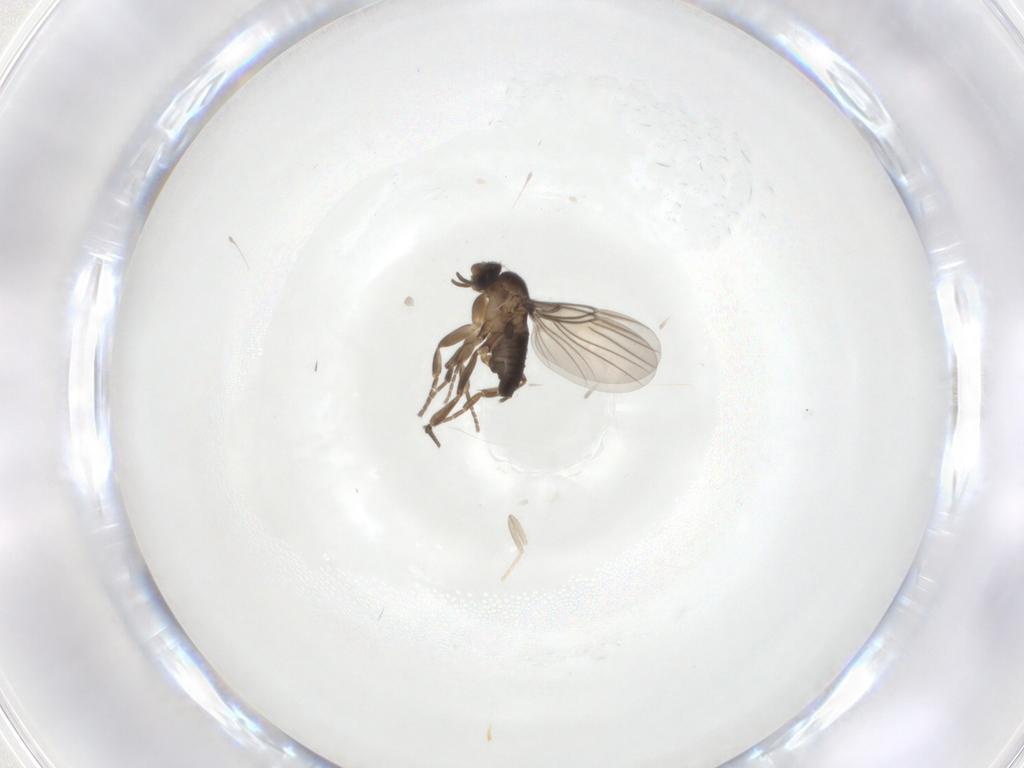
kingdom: Animalia
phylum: Arthropoda
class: Insecta
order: Diptera
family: Cecidomyiidae
